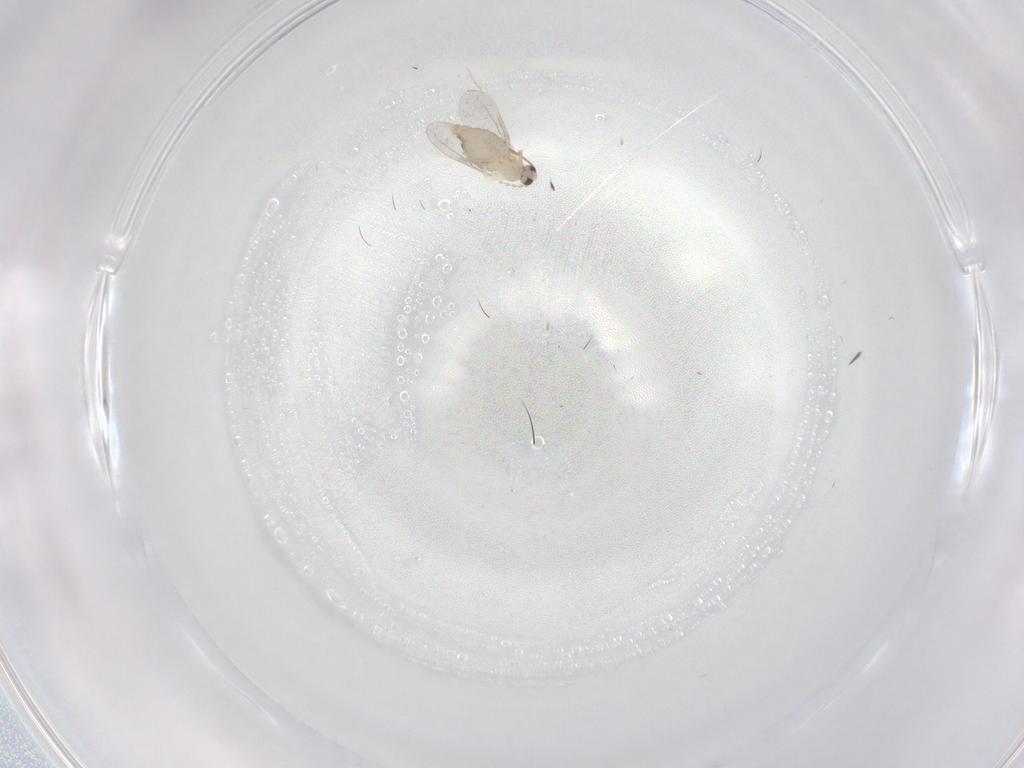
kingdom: Animalia
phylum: Arthropoda
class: Insecta
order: Diptera
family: Cecidomyiidae
